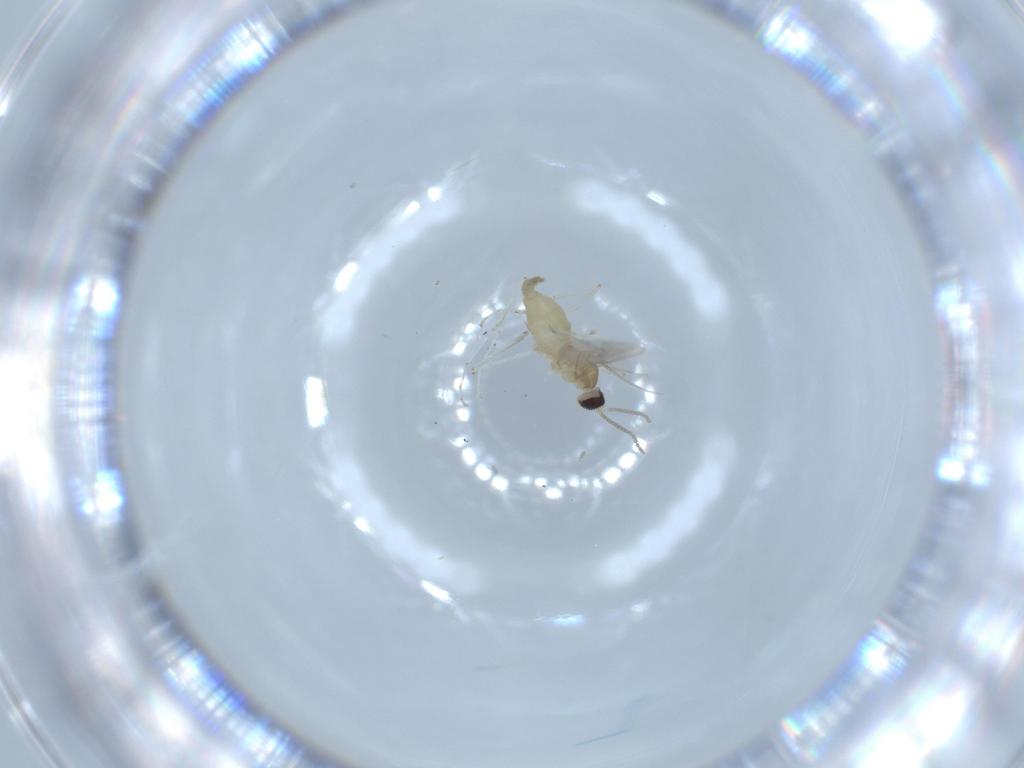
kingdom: Animalia
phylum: Arthropoda
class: Insecta
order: Diptera
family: Cecidomyiidae
